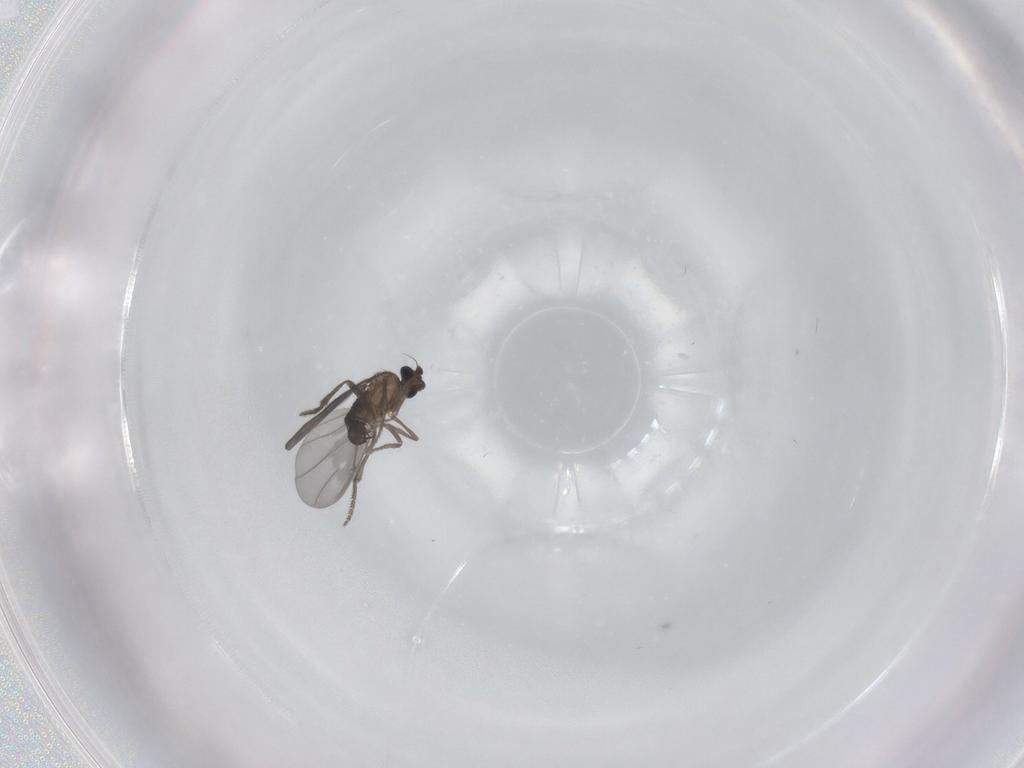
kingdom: Animalia
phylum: Arthropoda
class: Insecta
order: Diptera
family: Phoridae
